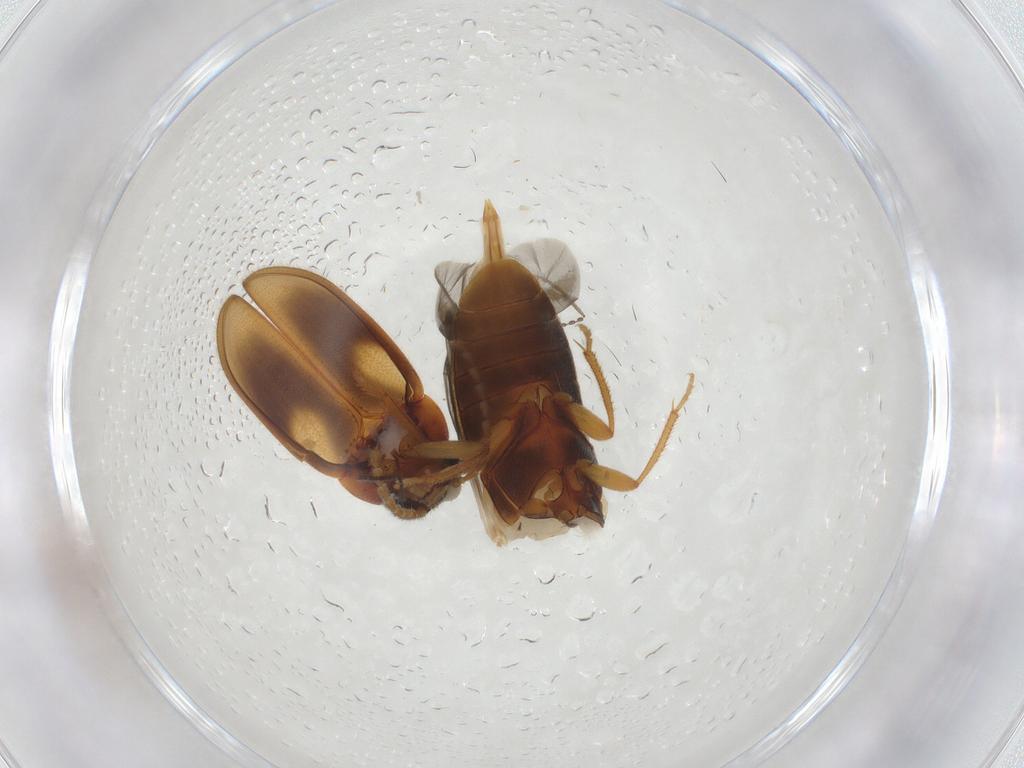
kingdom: Animalia
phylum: Arthropoda
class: Insecta
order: Coleoptera
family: Ptilodactylidae
